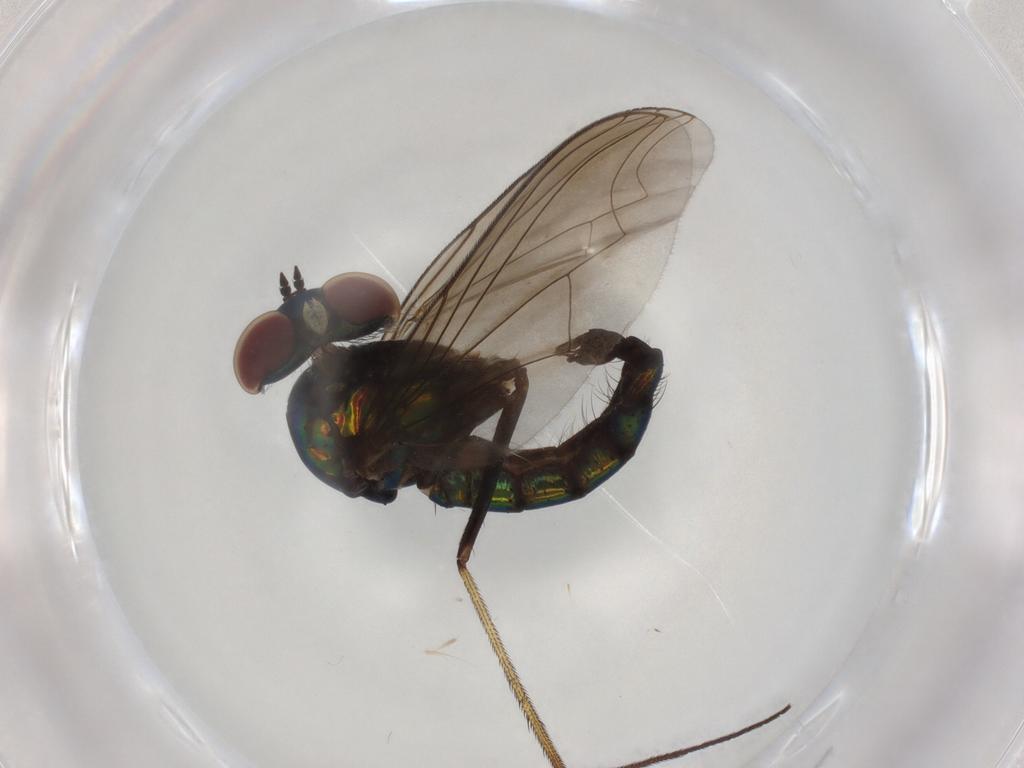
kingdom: Animalia
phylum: Arthropoda
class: Insecta
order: Diptera
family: Dolichopodidae
